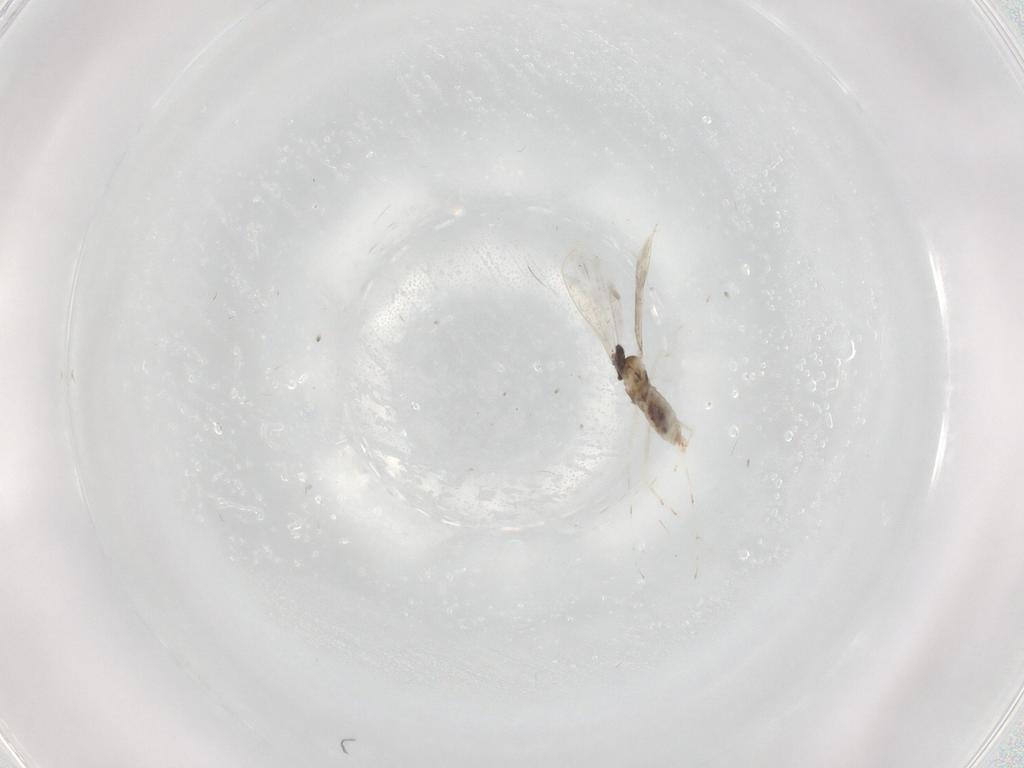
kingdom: Animalia
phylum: Arthropoda
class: Insecta
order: Diptera
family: Cecidomyiidae
